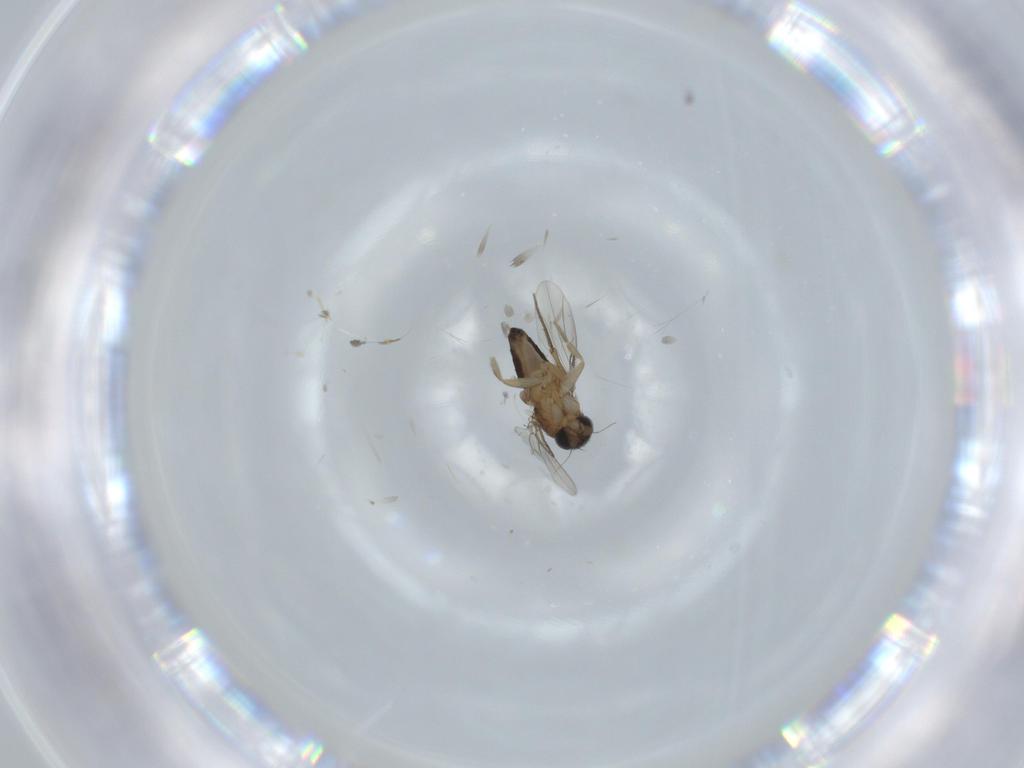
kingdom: Animalia
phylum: Arthropoda
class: Insecta
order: Diptera
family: Phoridae
